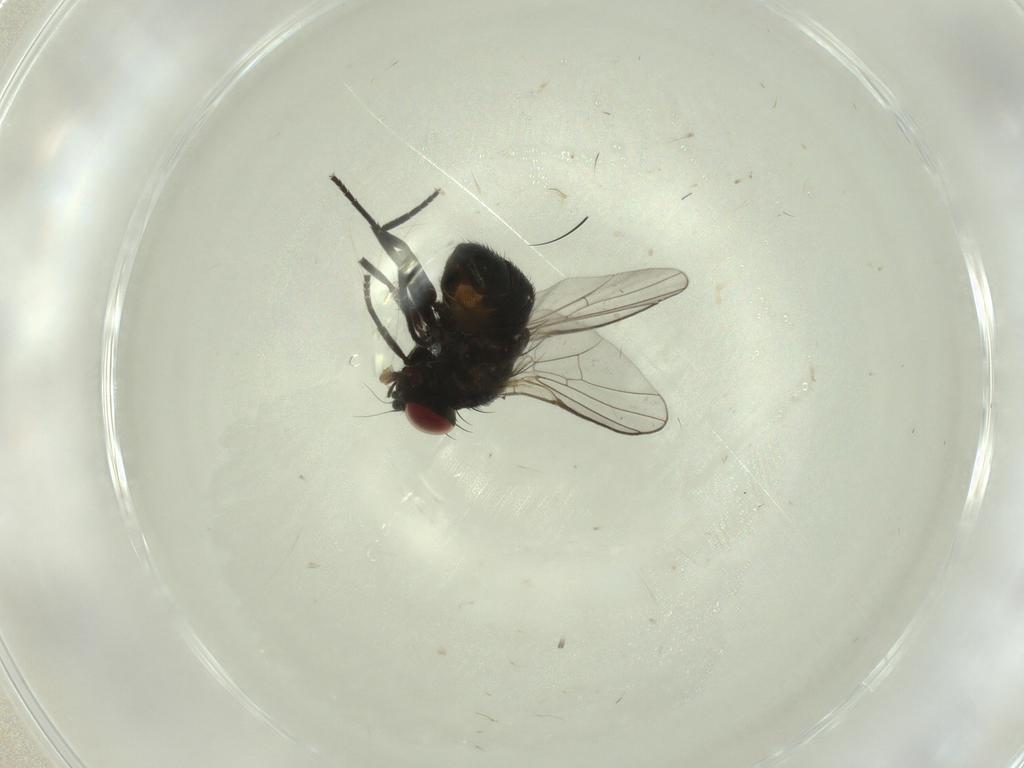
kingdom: Animalia
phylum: Arthropoda
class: Insecta
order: Diptera
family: Agromyzidae
